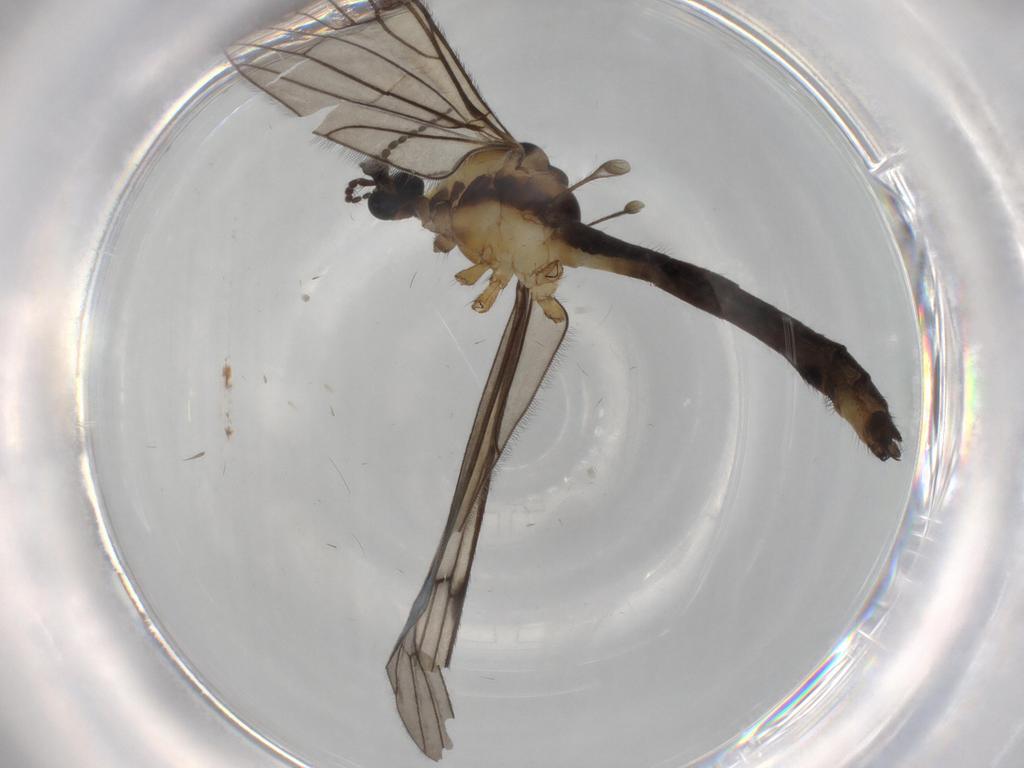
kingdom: Animalia
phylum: Arthropoda
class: Insecta
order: Diptera
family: Limoniidae
